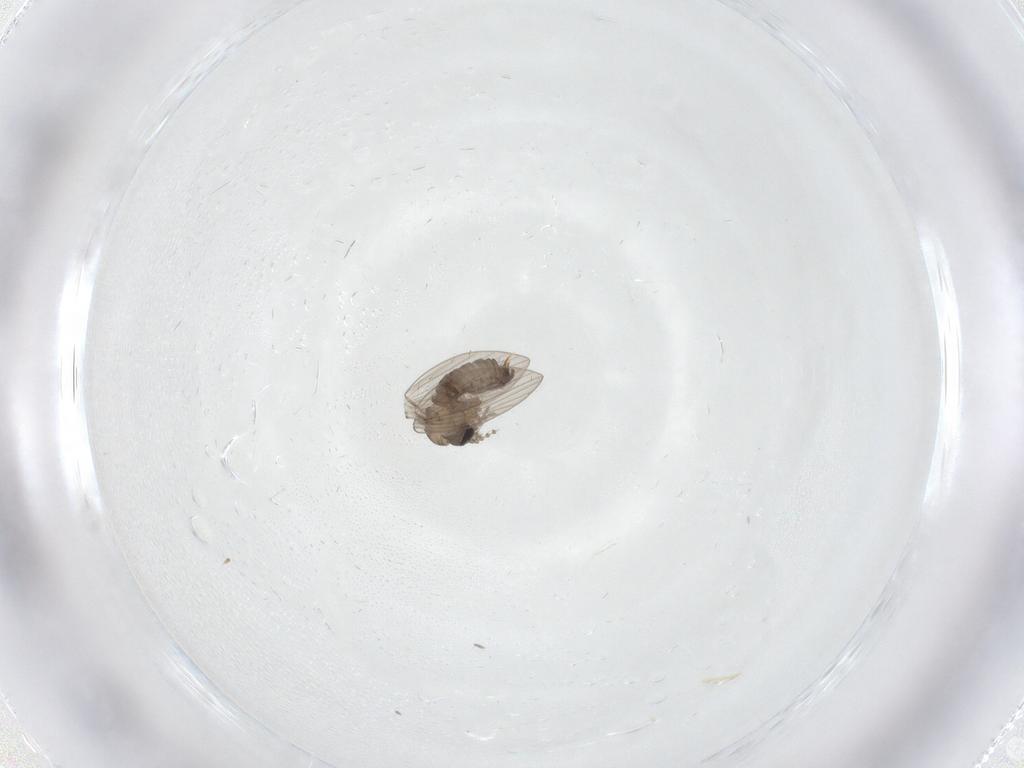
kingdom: Animalia
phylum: Arthropoda
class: Insecta
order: Diptera
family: Psychodidae
